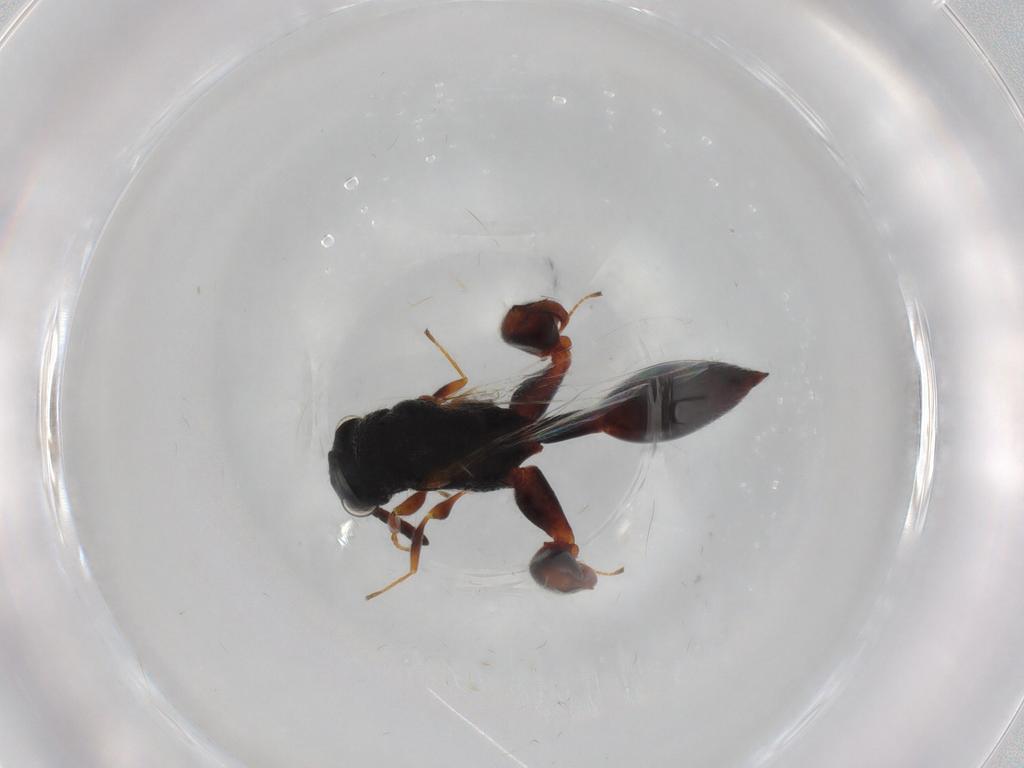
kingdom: Animalia
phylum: Arthropoda
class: Insecta
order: Hymenoptera
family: Chalcididae
